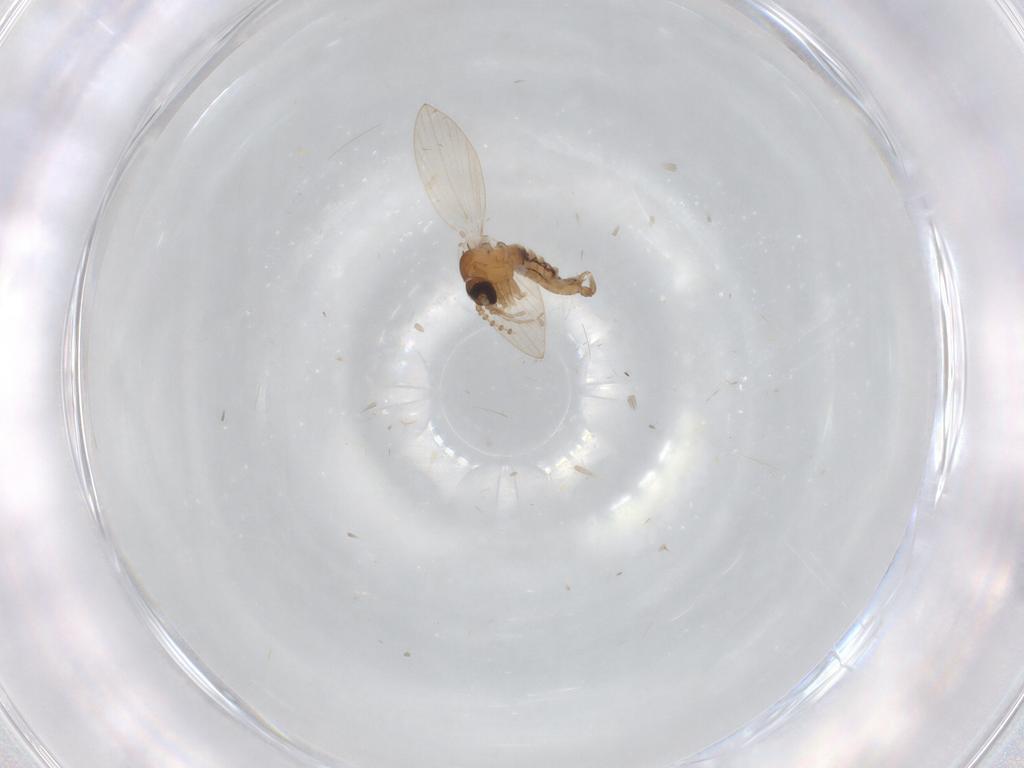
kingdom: Animalia
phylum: Arthropoda
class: Insecta
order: Diptera
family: Chironomidae
